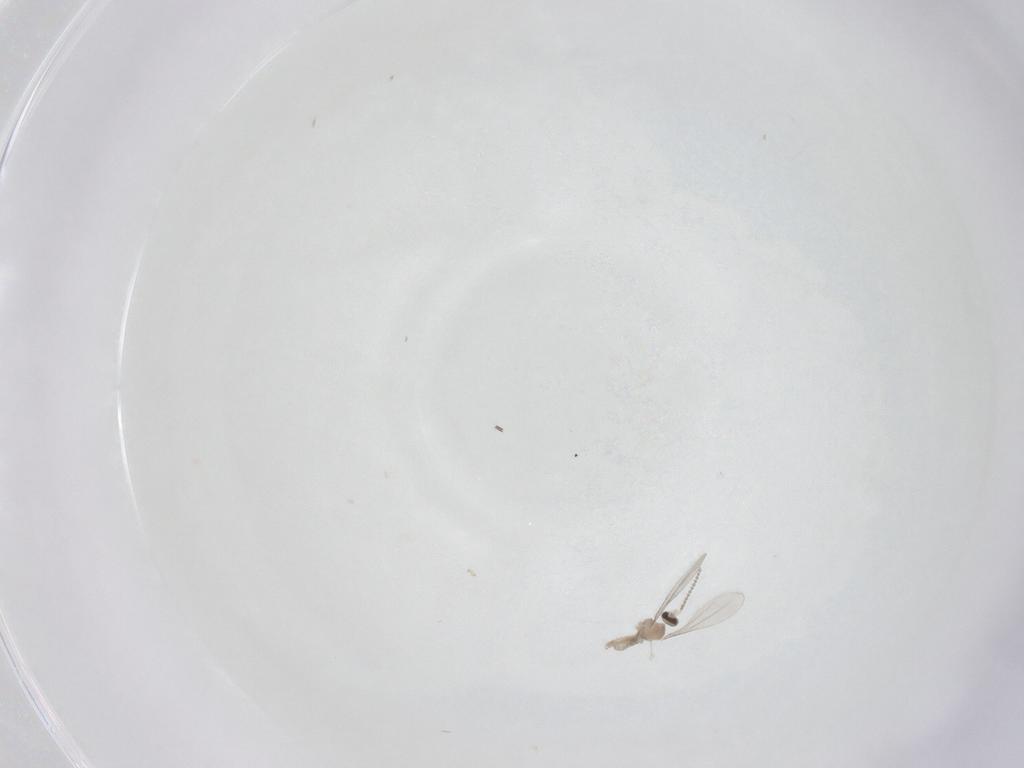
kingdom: Animalia
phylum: Arthropoda
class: Insecta
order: Diptera
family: Cecidomyiidae
